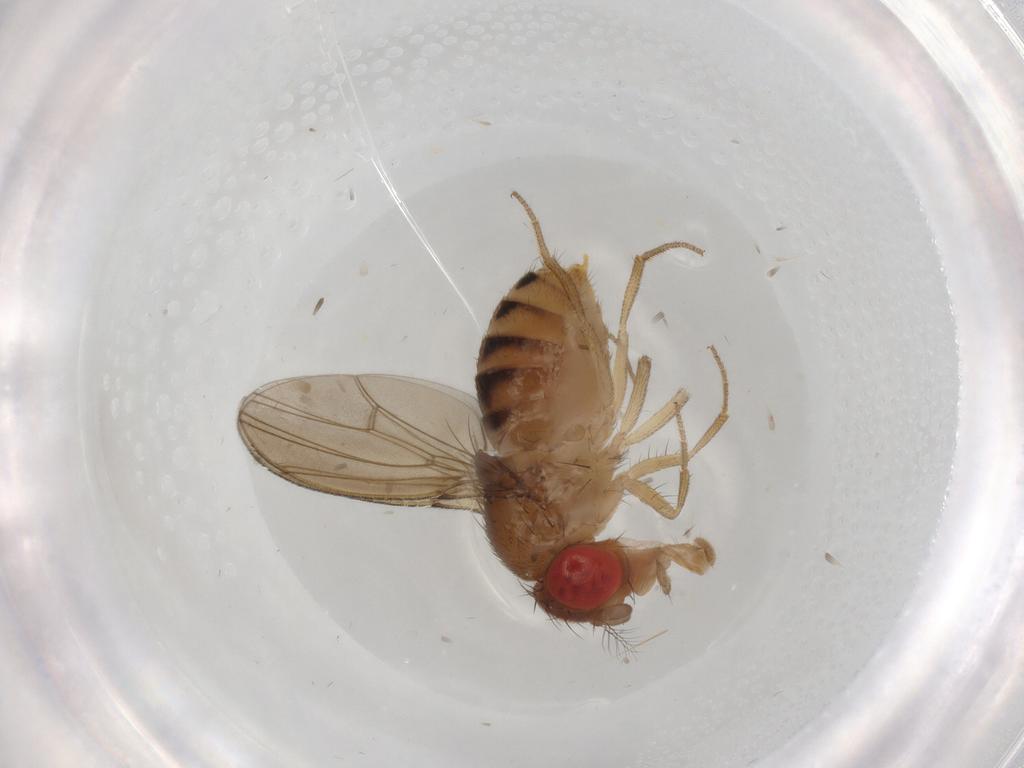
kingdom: Animalia
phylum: Arthropoda
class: Insecta
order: Diptera
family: Drosophilidae
